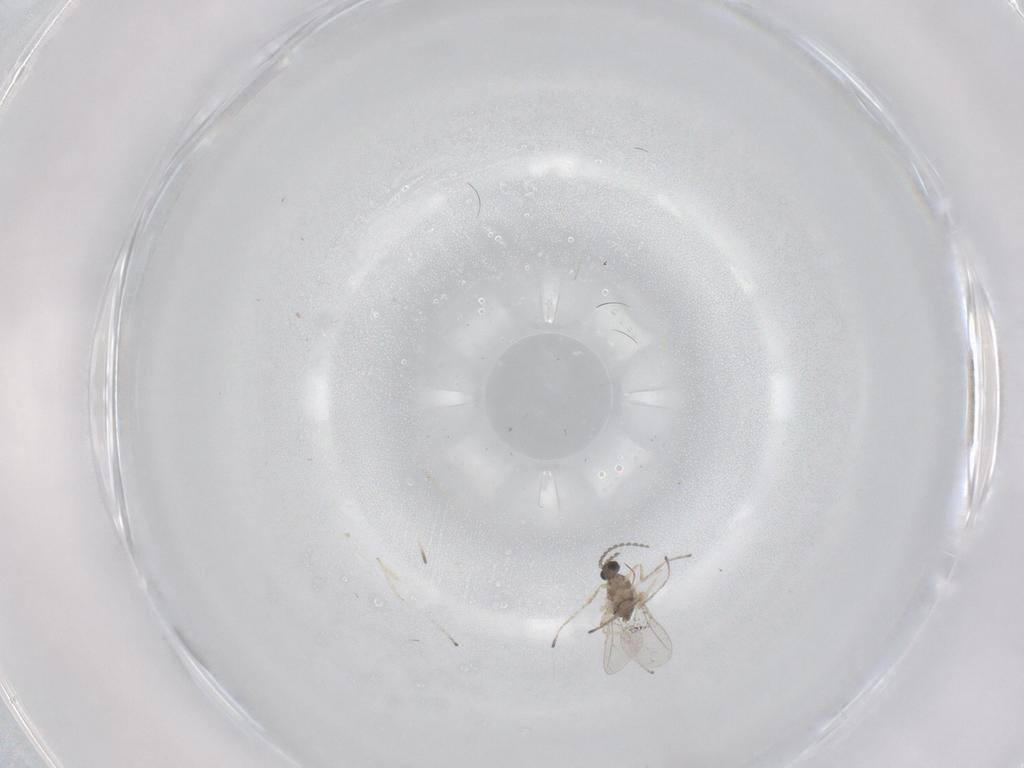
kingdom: Animalia
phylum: Arthropoda
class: Insecta
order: Diptera
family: Cecidomyiidae
